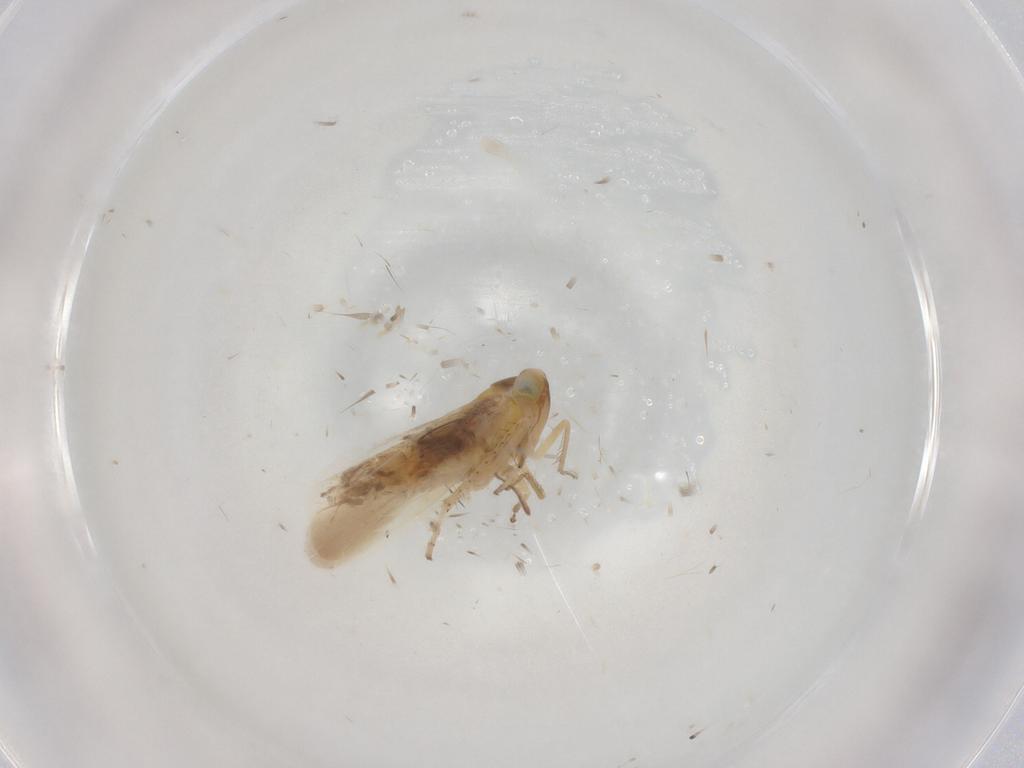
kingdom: Animalia
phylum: Arthropoda
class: Insecta
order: Hemiptera
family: Cicadellidae
